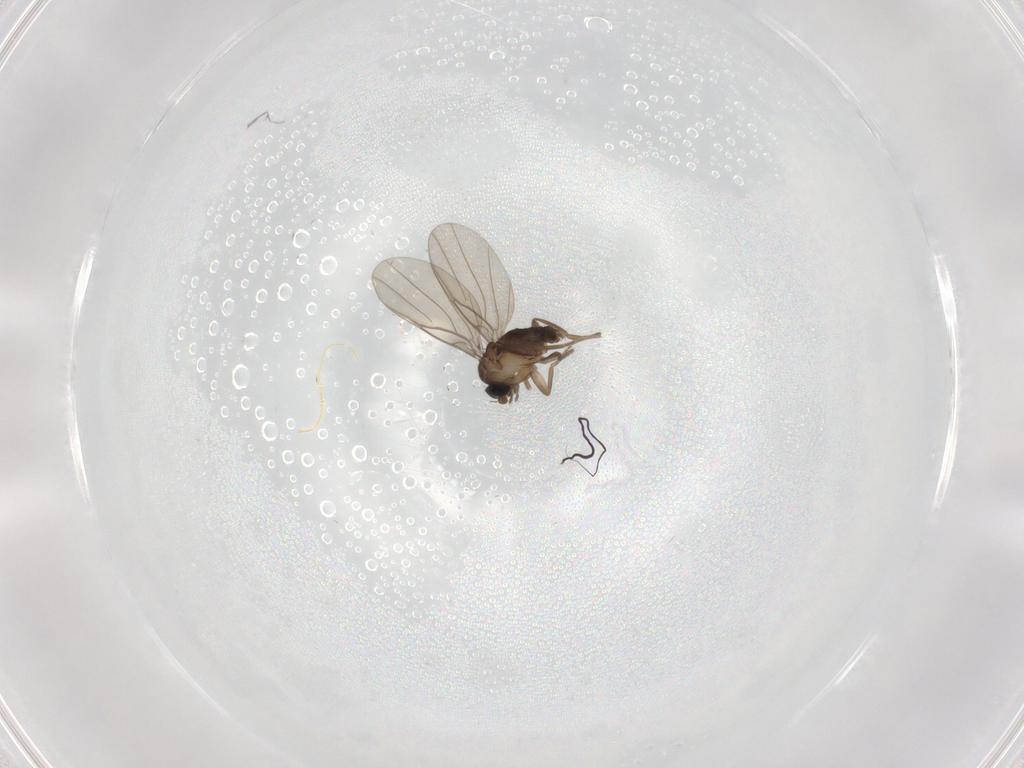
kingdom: Animalia
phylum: Arthropoda
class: Insecta
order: Diptera
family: Phoridae
